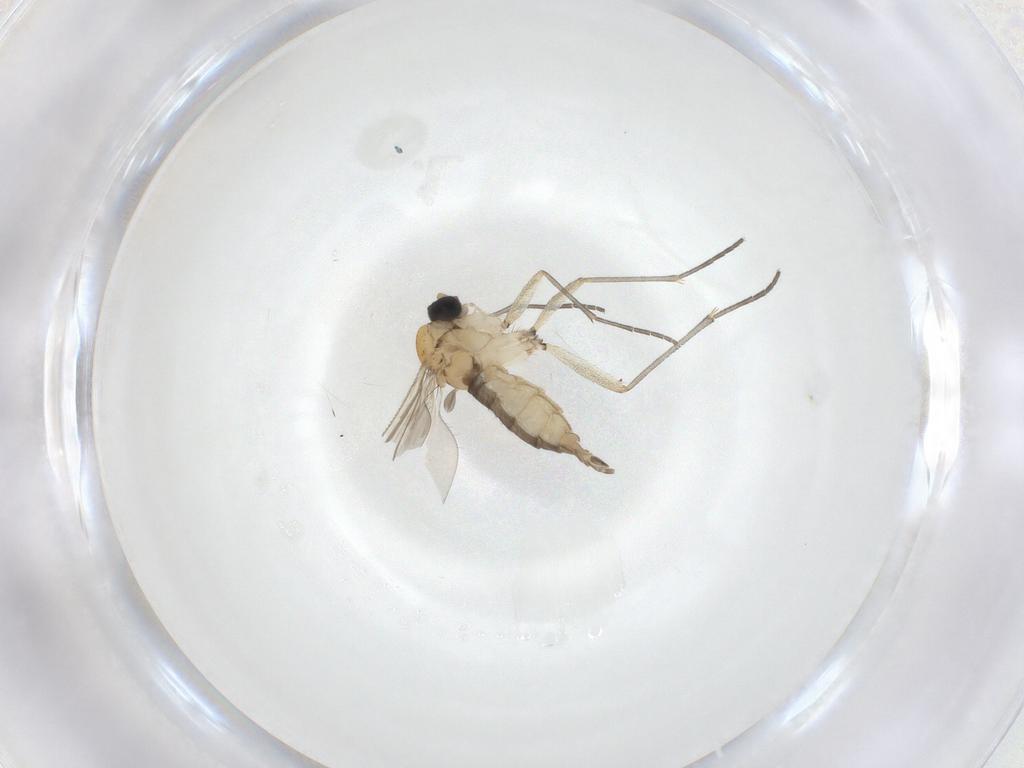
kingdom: Animalia
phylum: Arthropoda
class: Insecta
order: Diptera
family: Sciaridae
